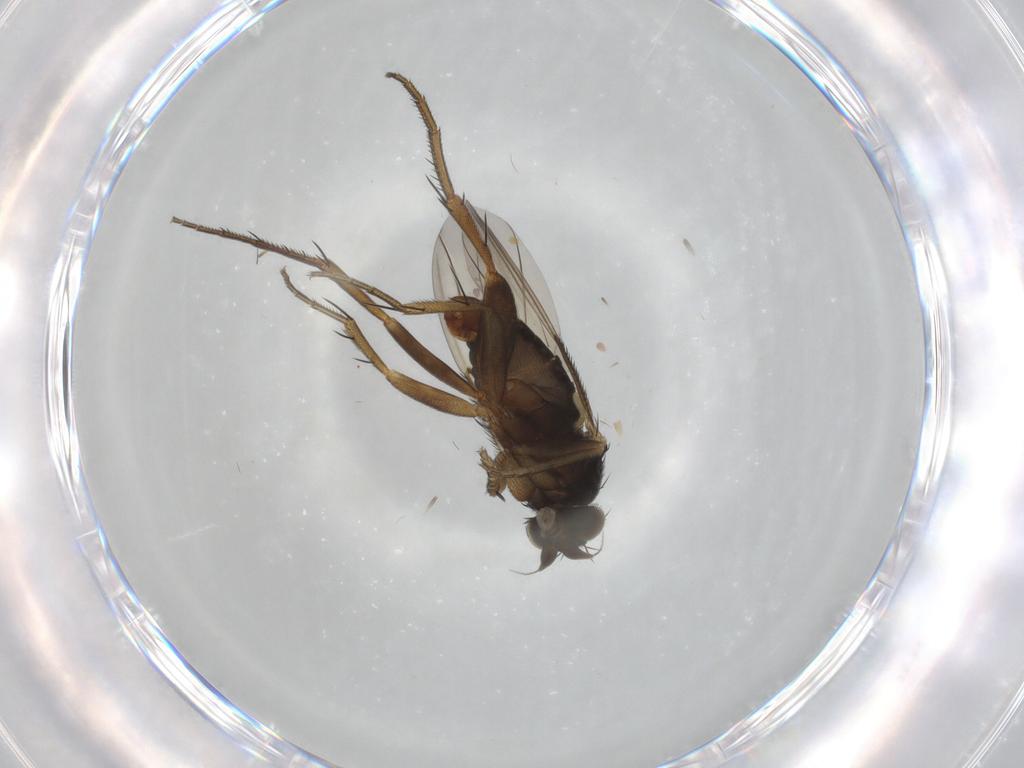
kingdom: Animalia
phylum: Arthropoda
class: Insecta
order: Diptera
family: Phoridae
